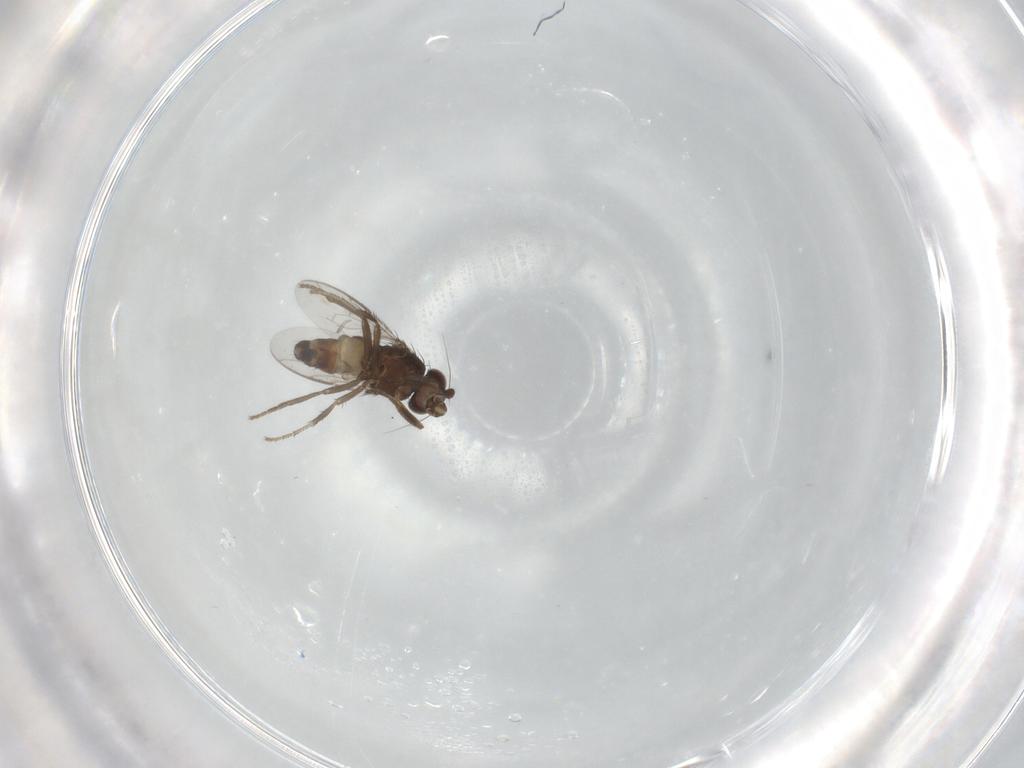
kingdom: Animalia
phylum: Arthropoda
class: Insecta
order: Diptera
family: Sphaeroceridae
